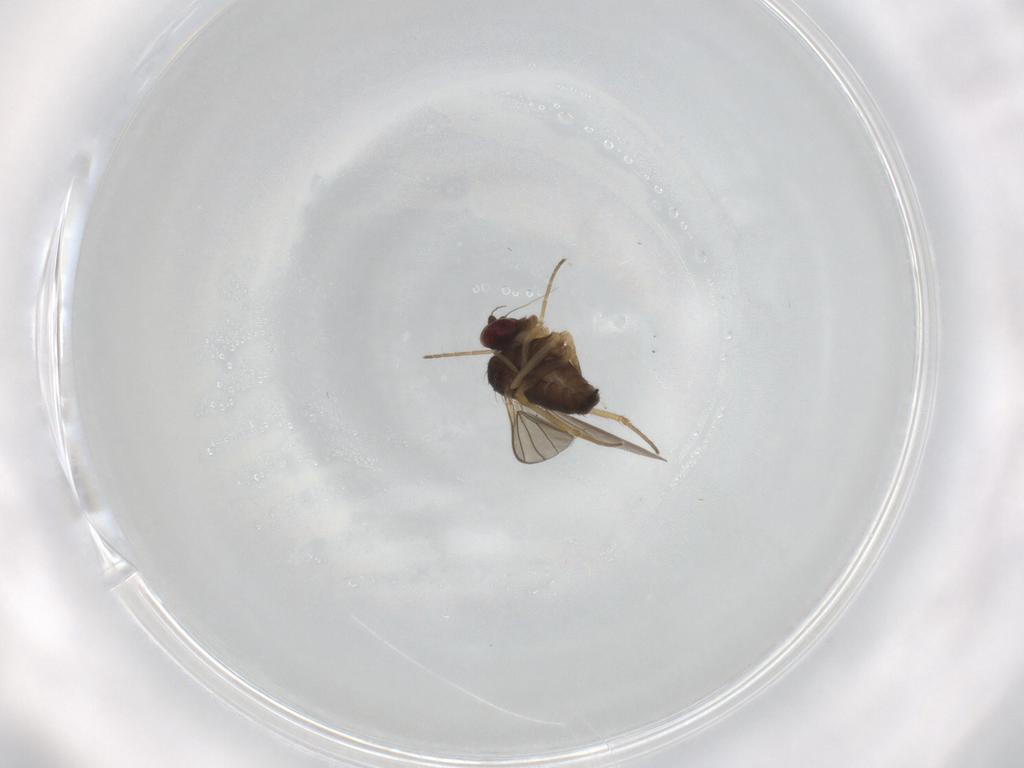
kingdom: Animalia
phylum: Arthropoda
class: Insecta
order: Diptera
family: Dolichopodidae
